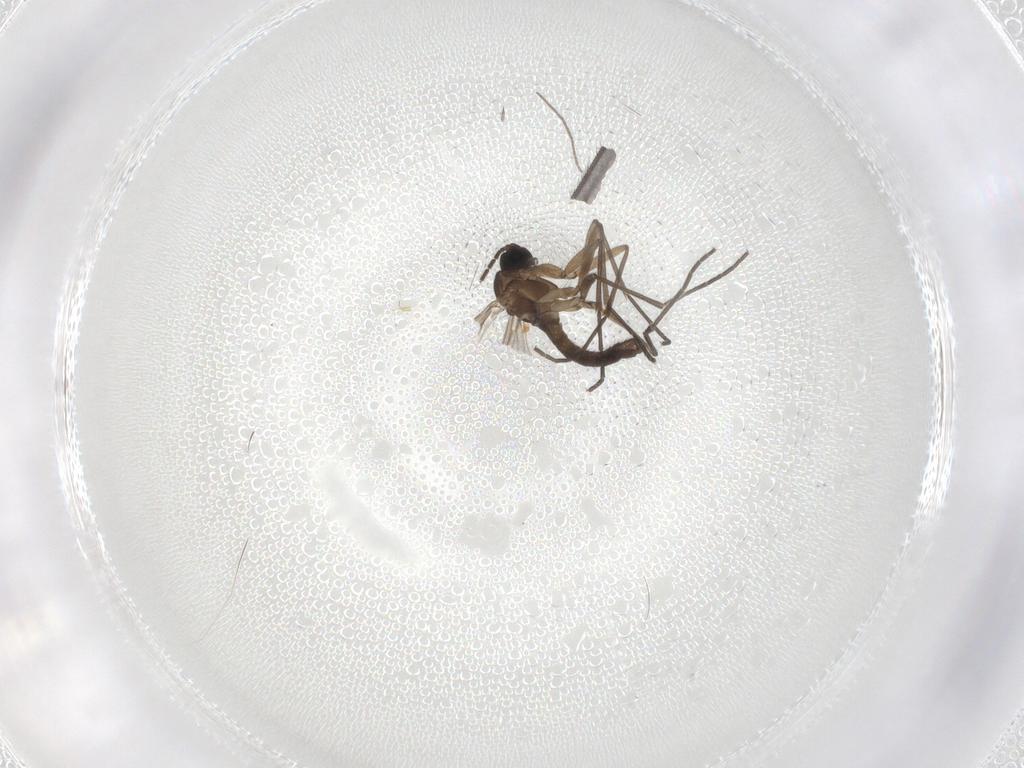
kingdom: Animalia
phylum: Arthropoda
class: Insecta
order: Diptera
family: Sciaridae
